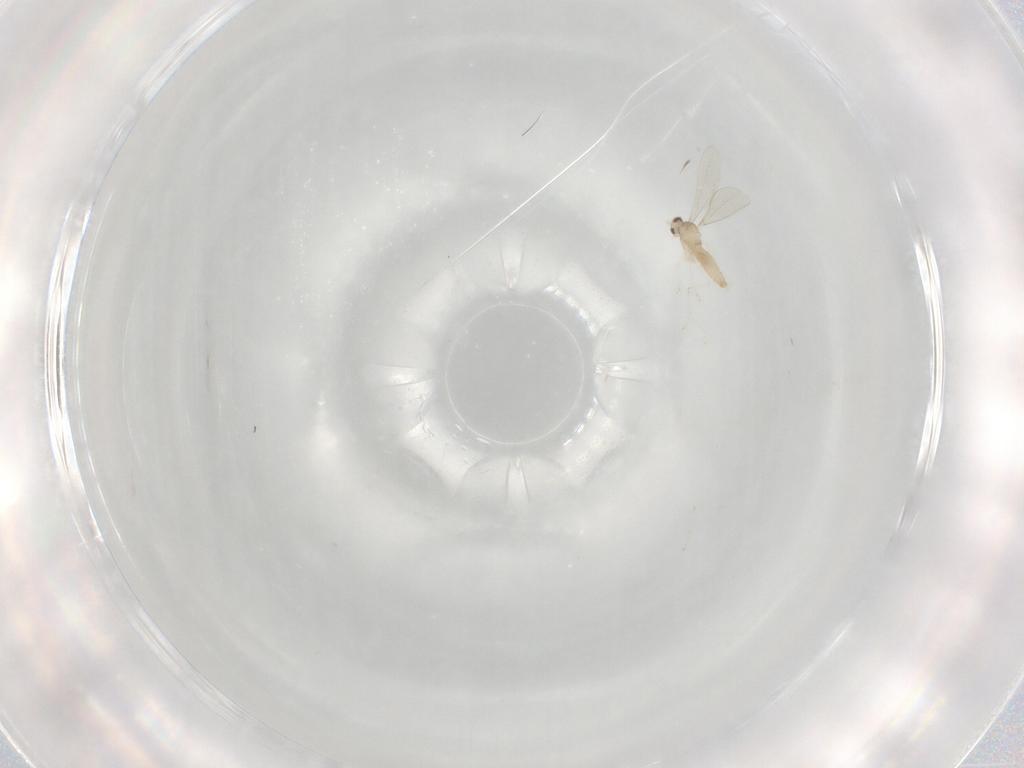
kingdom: Animalia
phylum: Arthropoda
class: Insecta
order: Diptera
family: Cecidomyiidae
